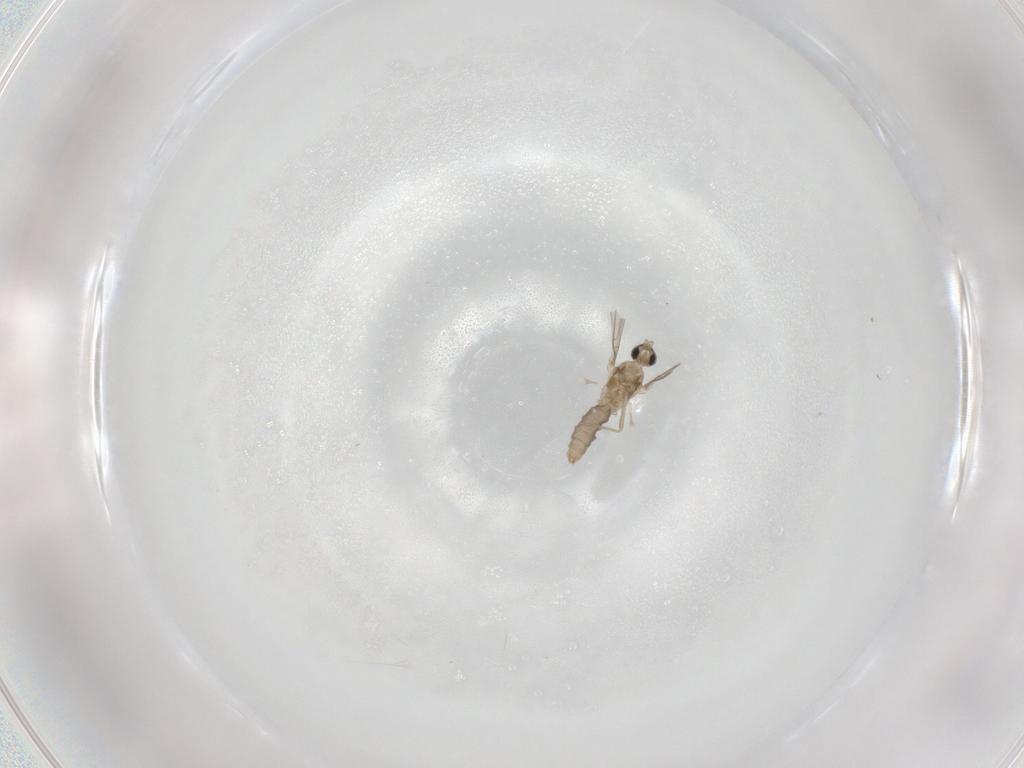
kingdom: Animalia
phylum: Arthropoda
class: Insecta
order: Diptera
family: Cecidomyiidae
